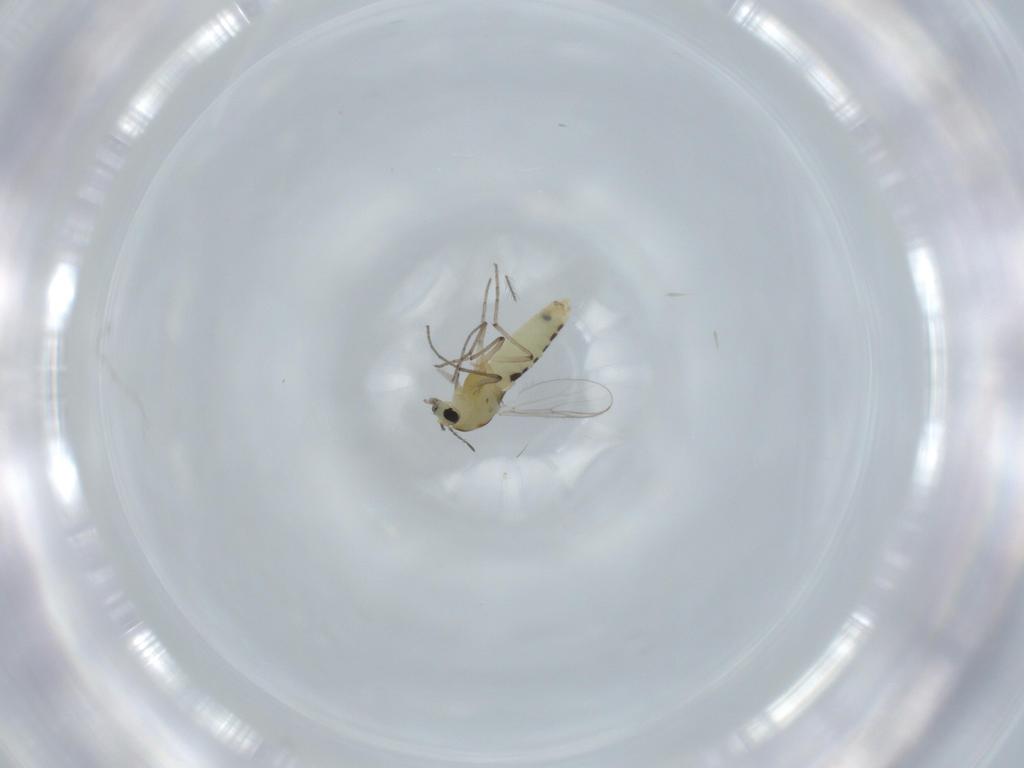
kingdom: Animalia
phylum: Arthropoda
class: Insecta
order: Diptera
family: Chironomidae
